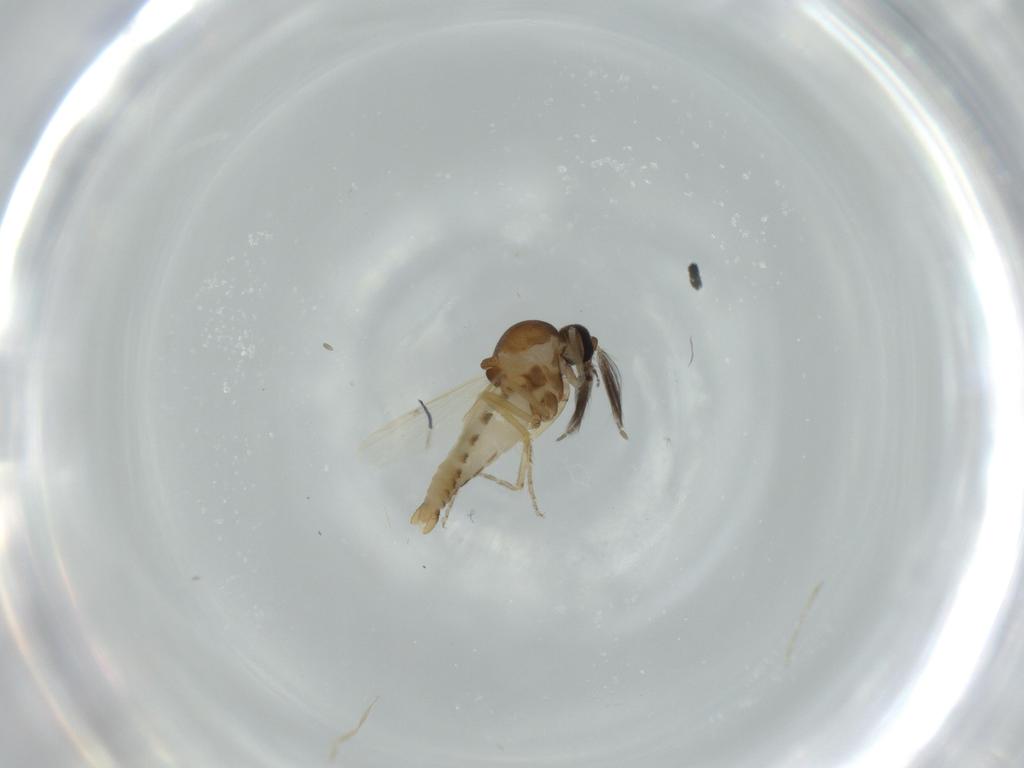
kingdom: Animalia
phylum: Arthropoda
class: Insecta
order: Diptera
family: Ceratopogonidae
